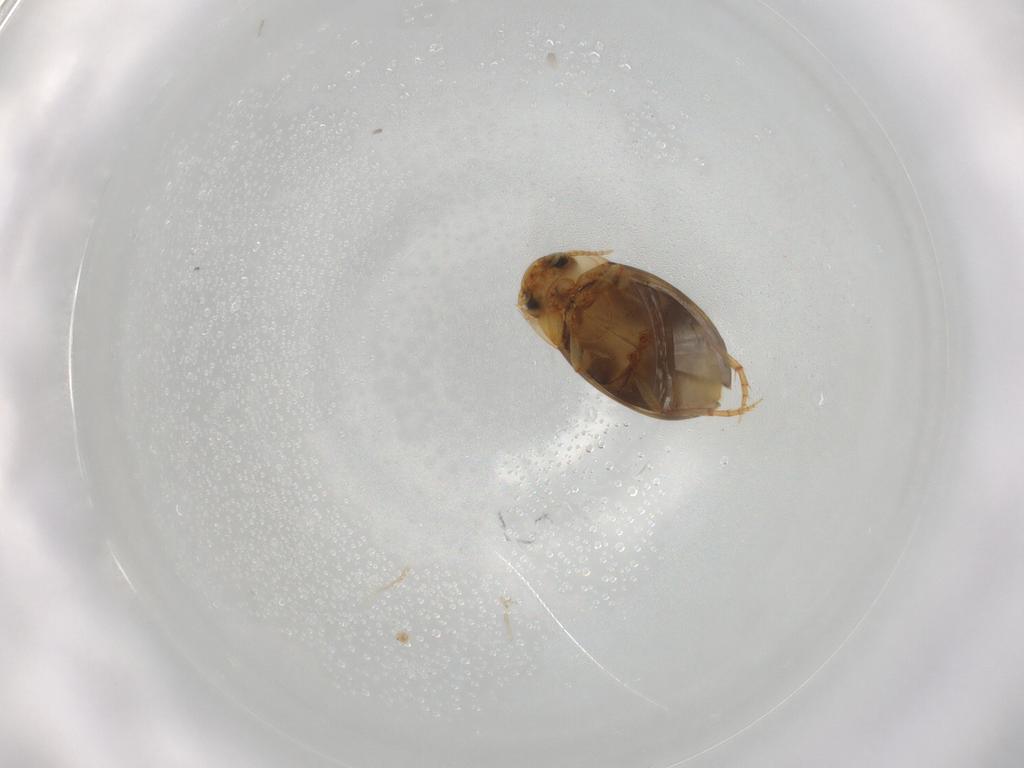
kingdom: Animalia
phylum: Arthropoda
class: Insecta
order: Coleoptera
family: Dytiscidae
